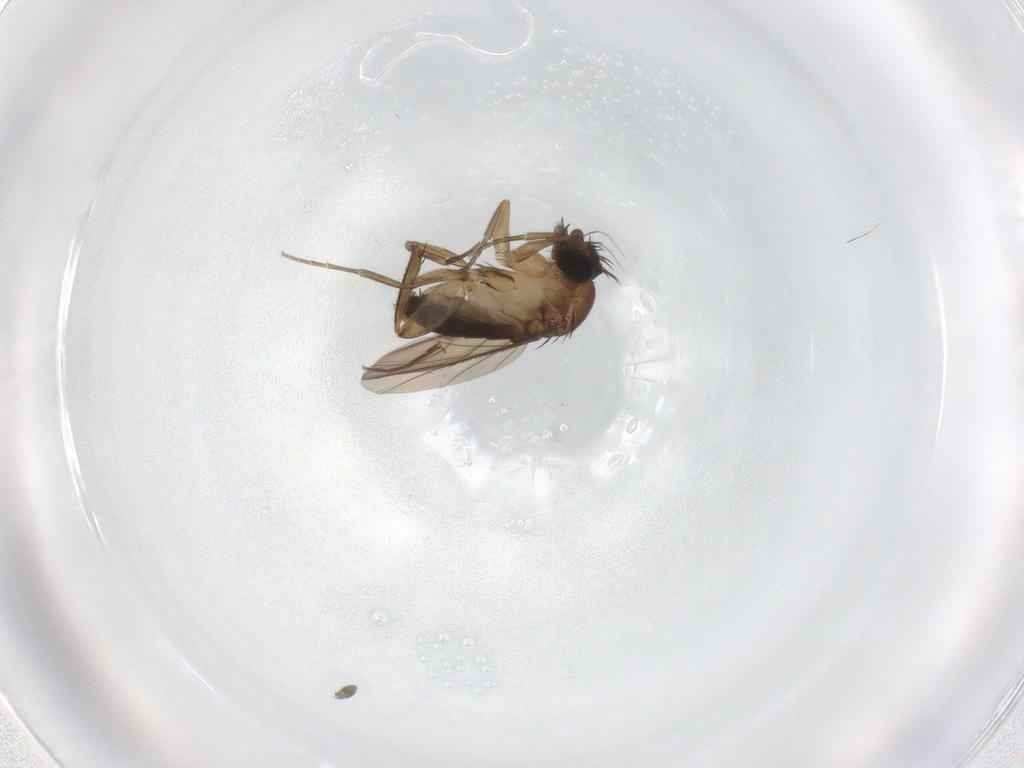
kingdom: Animalia
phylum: Arthropoda
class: Insecta
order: Diptera
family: Phoridae
